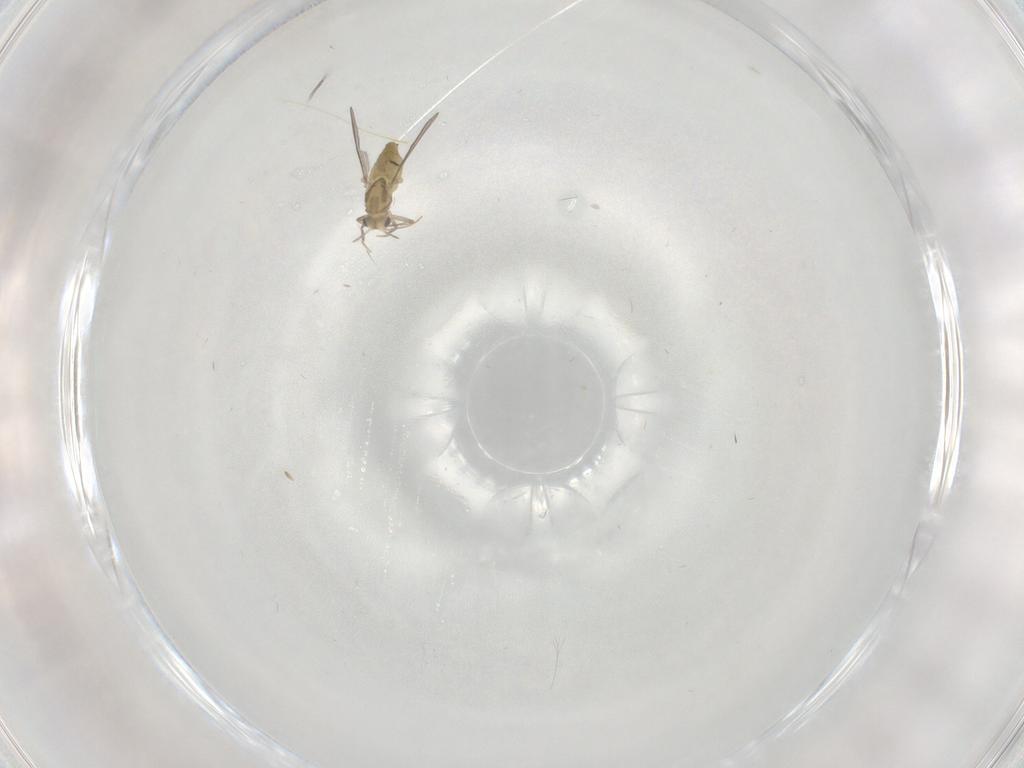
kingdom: Animalia
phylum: Arthropoda
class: Insecta
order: Diptera
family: Chironomidae
